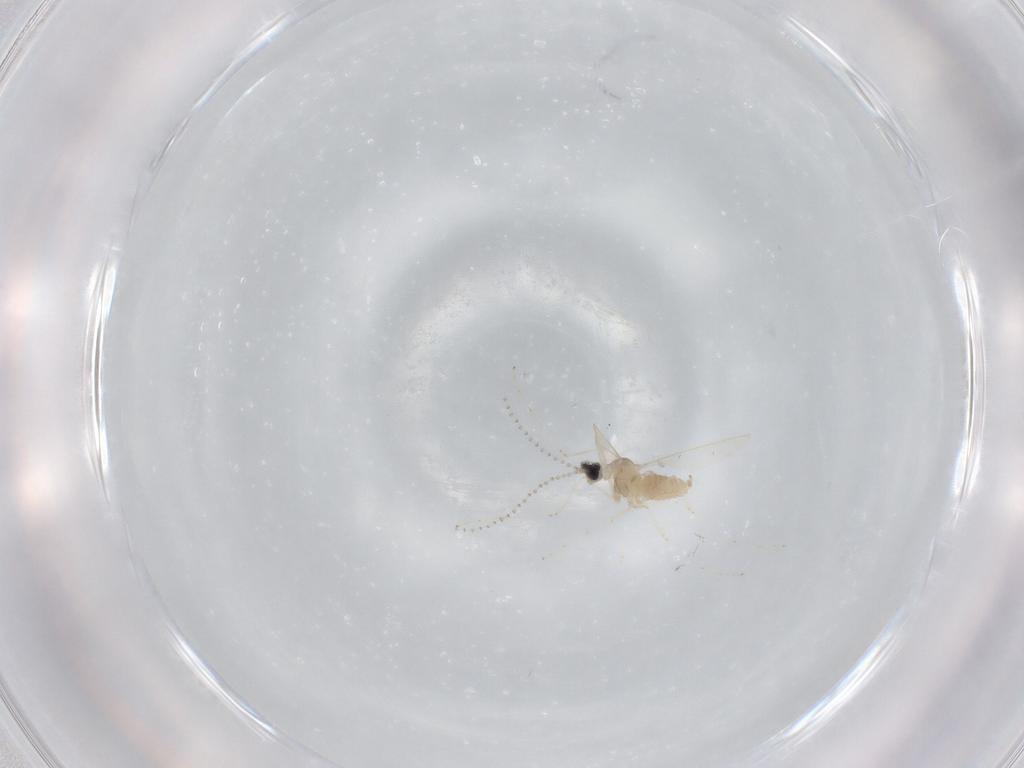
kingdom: Animalia
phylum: Arthropoda
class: Insecta
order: Diptera
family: Cecidomyiidae
